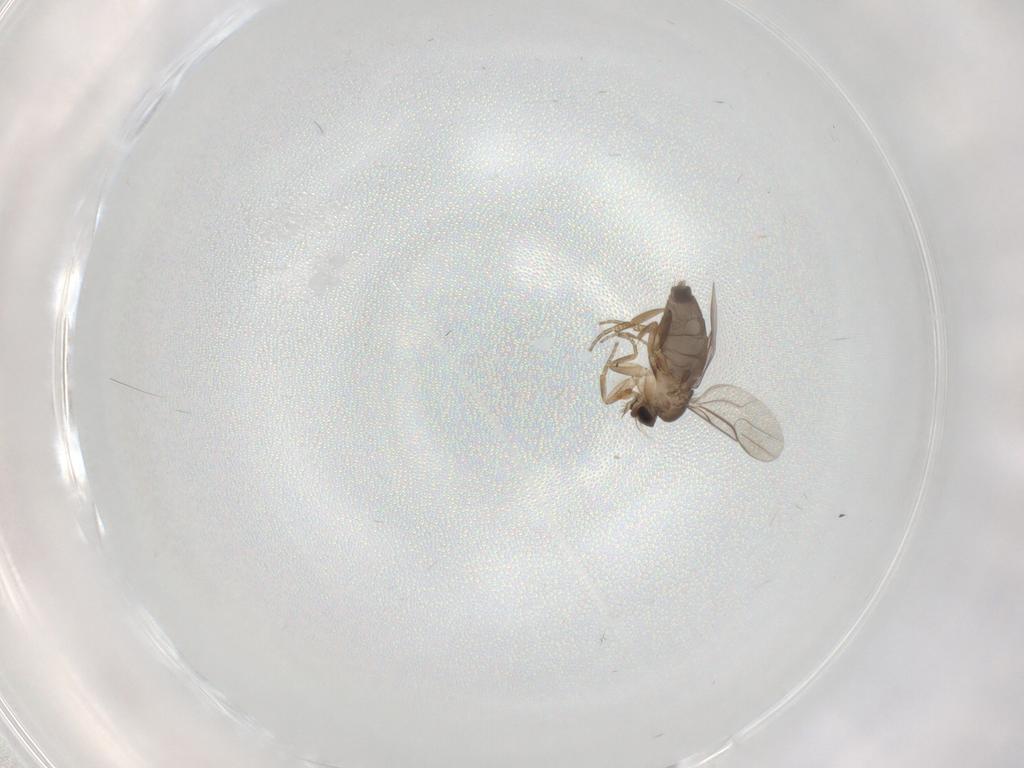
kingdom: Animalia
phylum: Arthropoda
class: Insecta
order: Diptera
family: Phoridae
